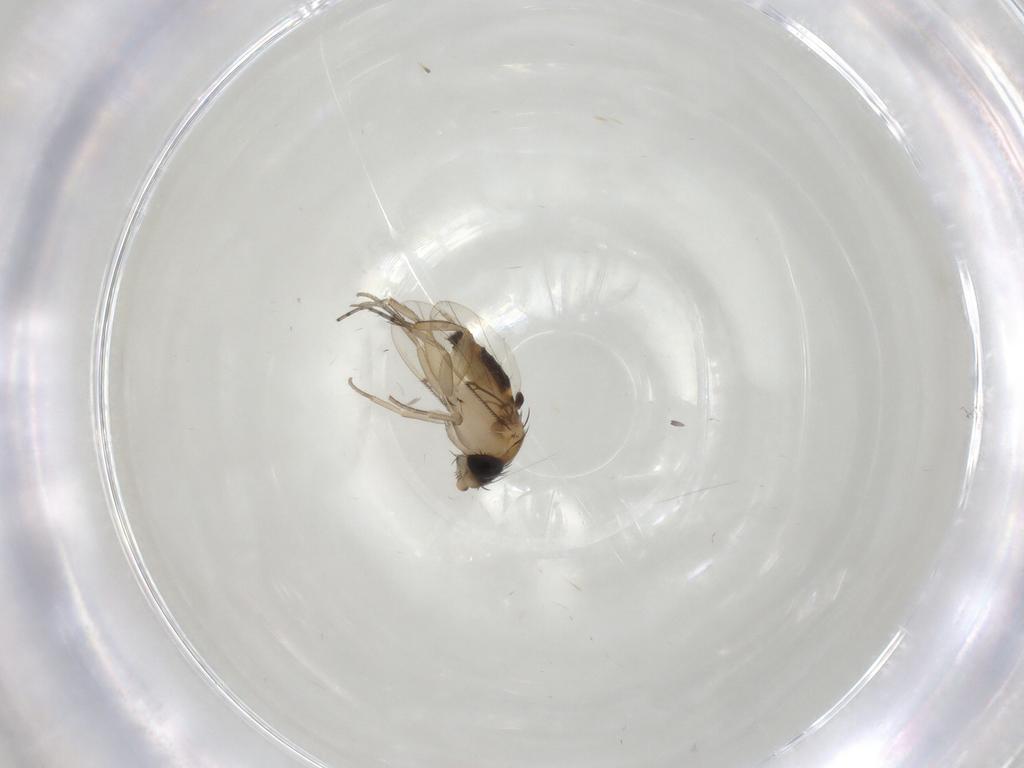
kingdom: Animalia
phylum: Arthropoda
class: Insecta
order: Diptera
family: Phoridae
